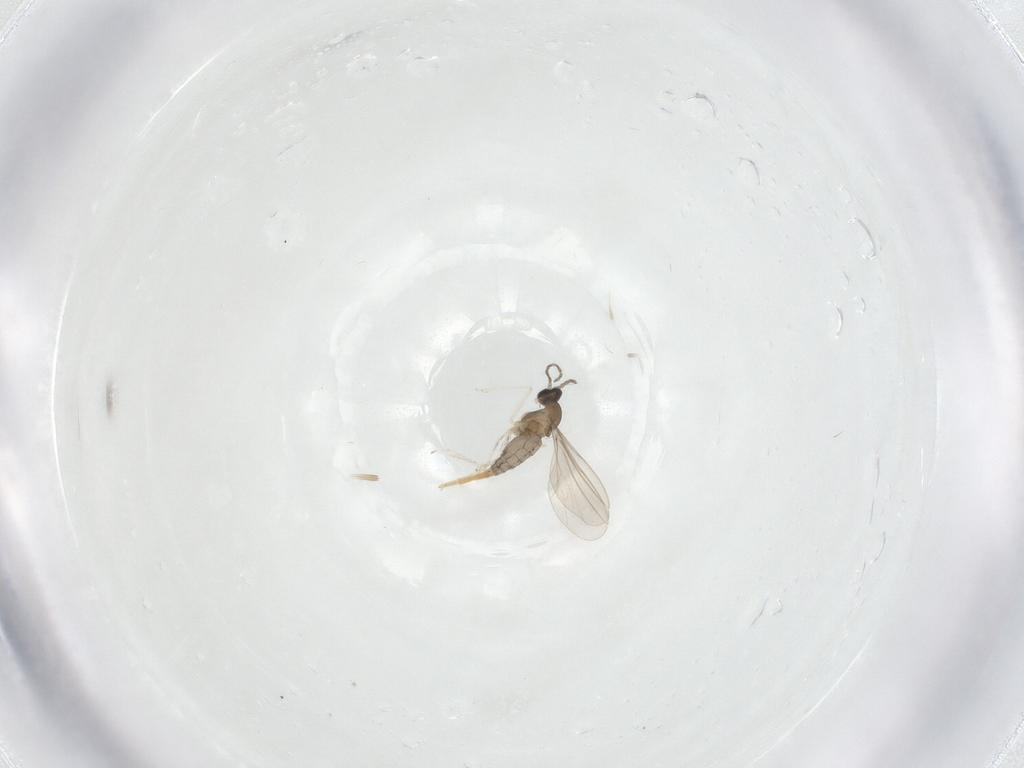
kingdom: Animalia
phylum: Arthropoda
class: Insecta
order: Diptera
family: Cecidomyiidae
